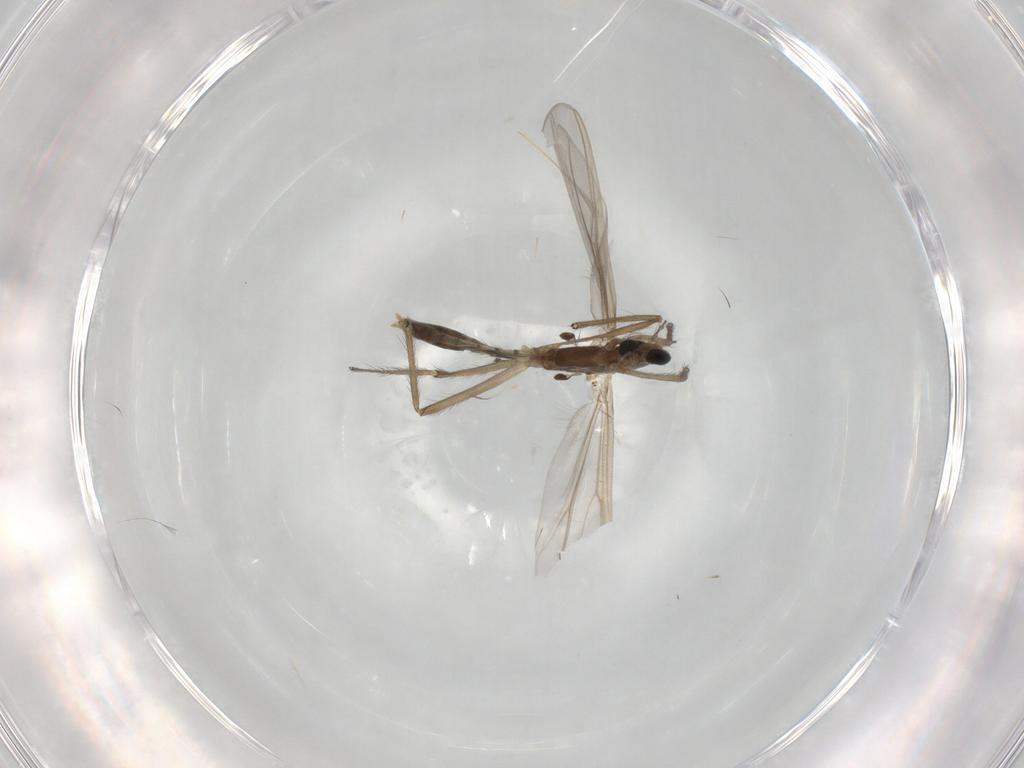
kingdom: Animalia
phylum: Arthropoda
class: Insecta
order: Diptera
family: Chironomidae
